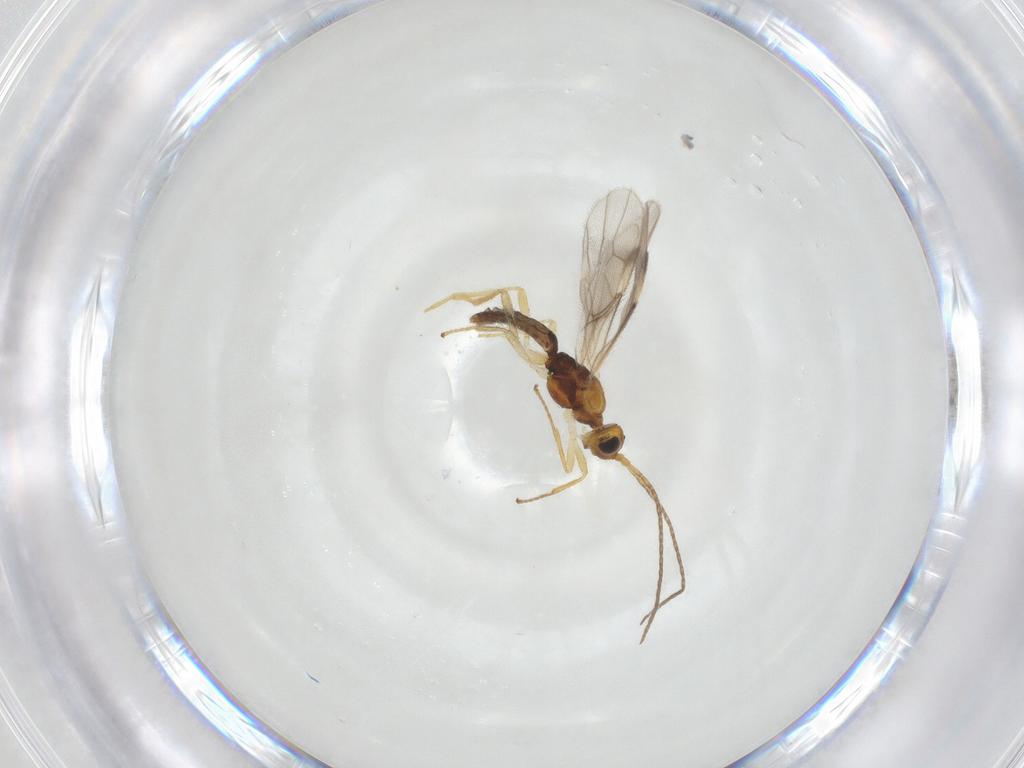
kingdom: Animalia
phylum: Arthropoda
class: Insecta
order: Hymenoptera
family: Braconidae
